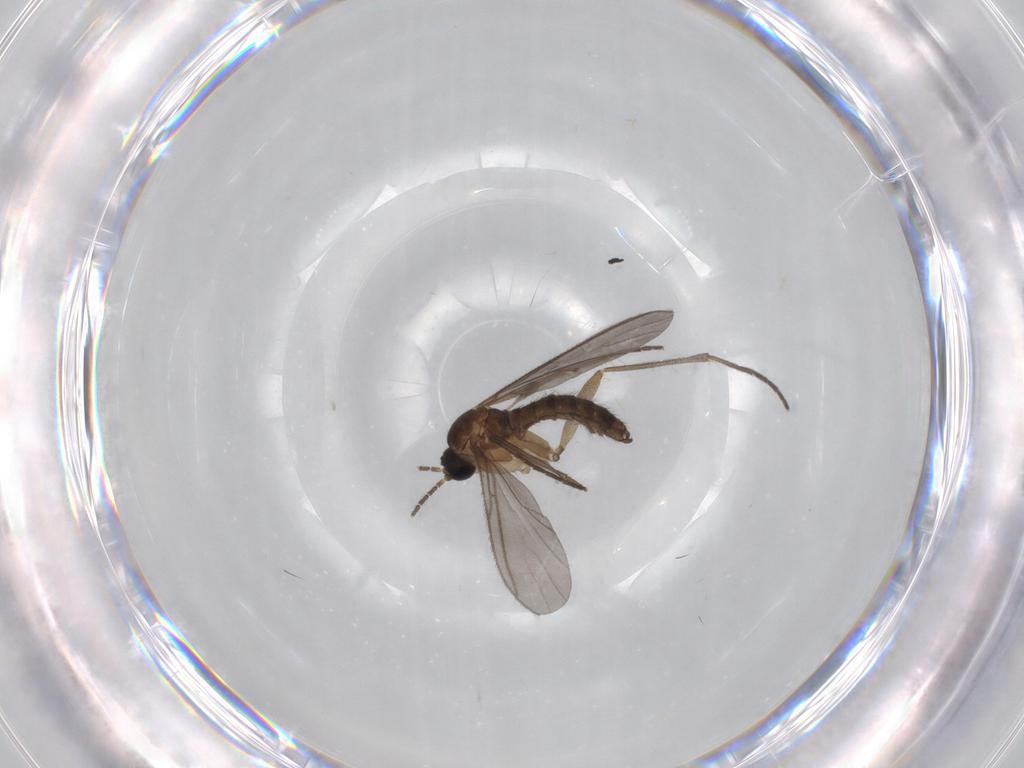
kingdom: Animalia
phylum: Arthropoda
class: Insecta
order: Diptera
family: Sciaridae
